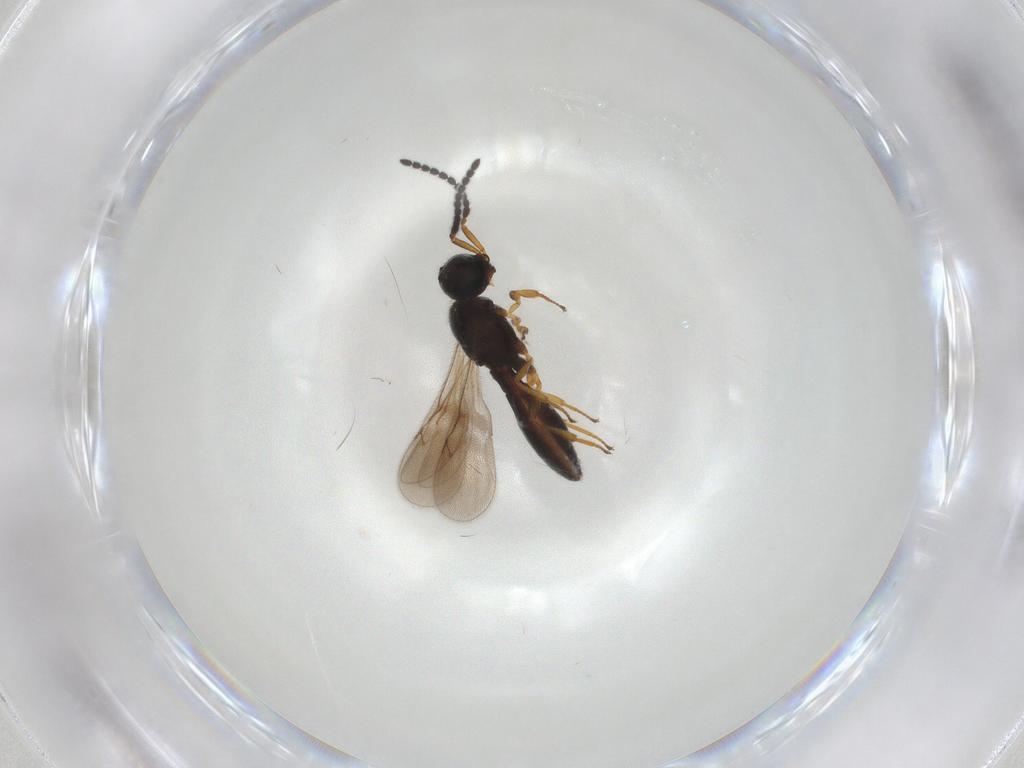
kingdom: Animalia
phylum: Arthropoda
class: Insecta
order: Hymenoptera
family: Scelionidae
